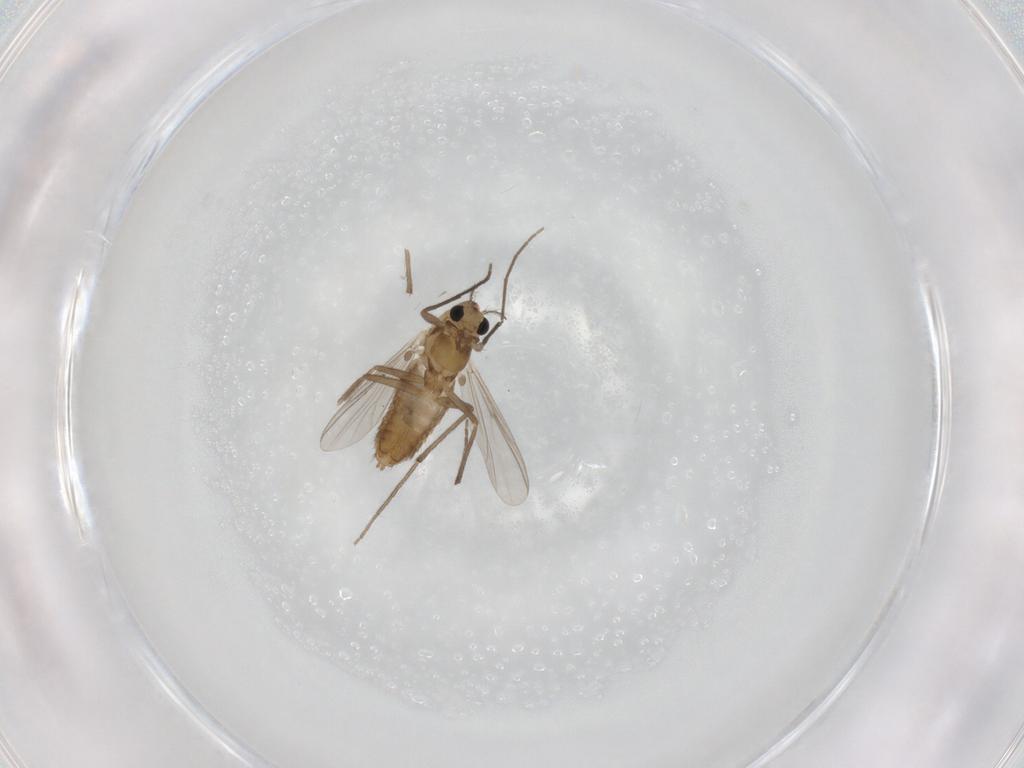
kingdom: Animalia
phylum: Arthropoda
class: Insecta
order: Diptera
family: Chironomidae
